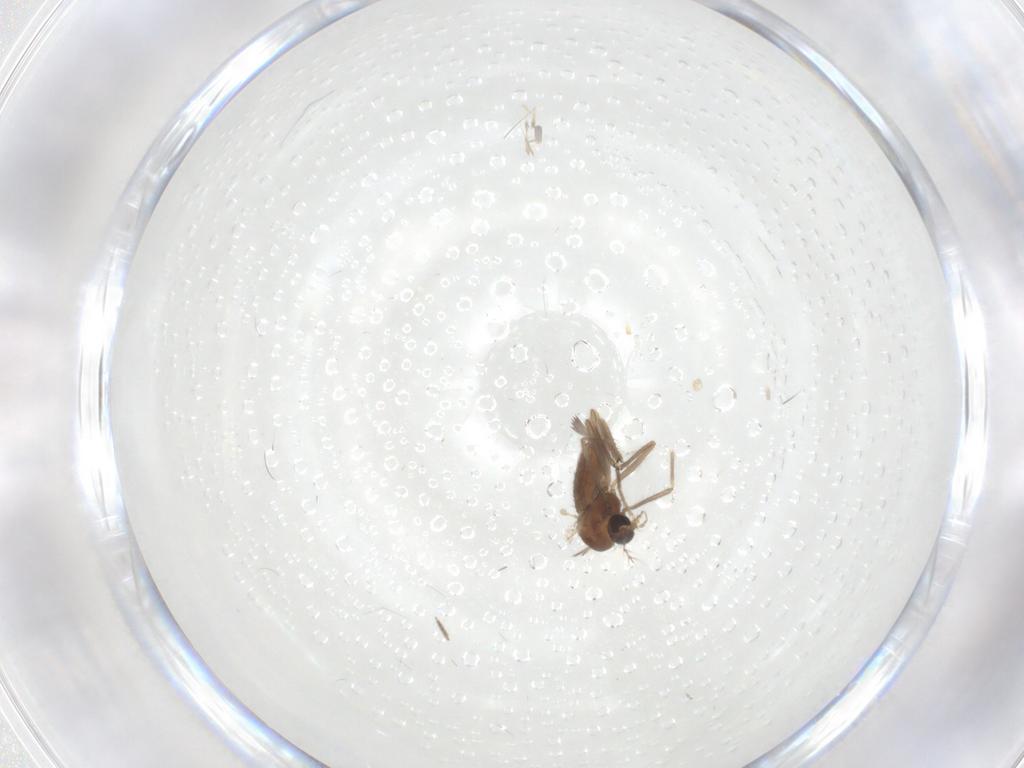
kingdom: Animalia
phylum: Arthropoda
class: Insecta
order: Diptera
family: Chironomidae
